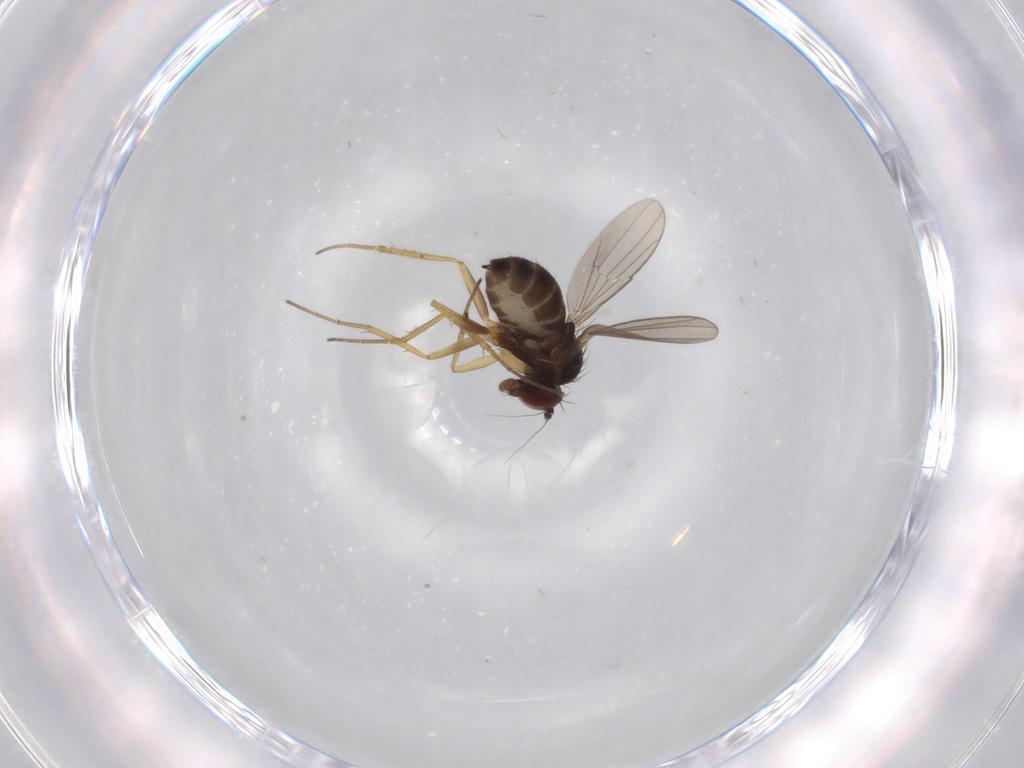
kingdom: Animalia
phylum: Arthropoda
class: Insecta
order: Diptera
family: Dolichopodidae
